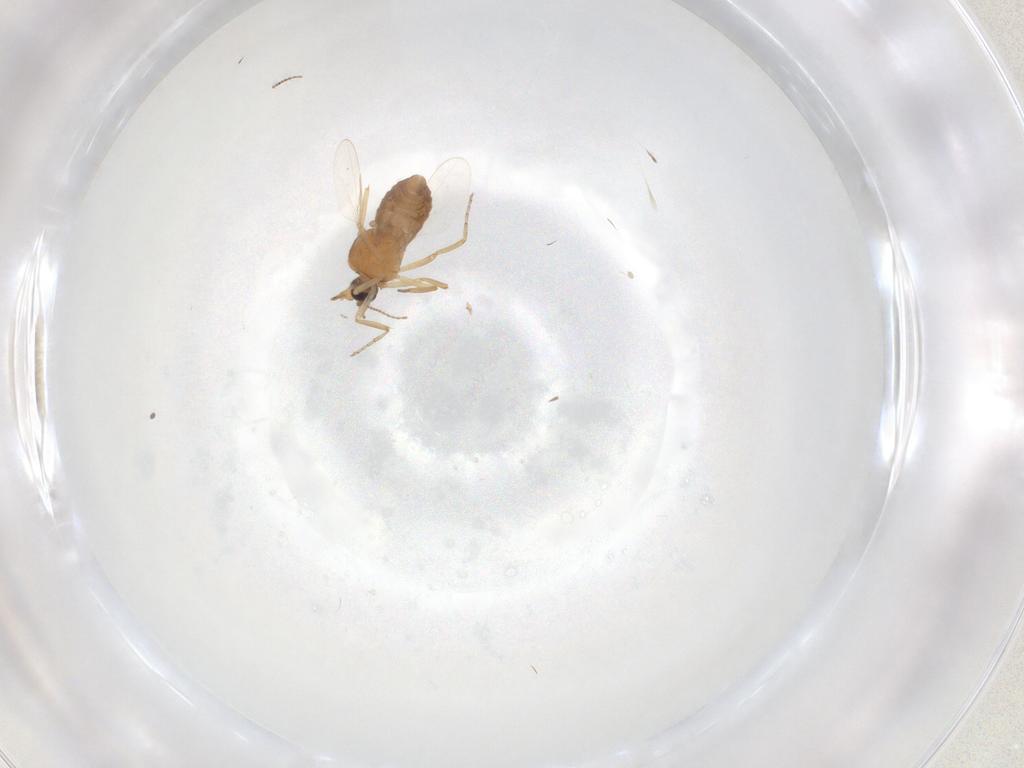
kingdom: Animalia
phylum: Arthropoda
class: Insecta
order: Diptera
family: Ceratopogonidae
